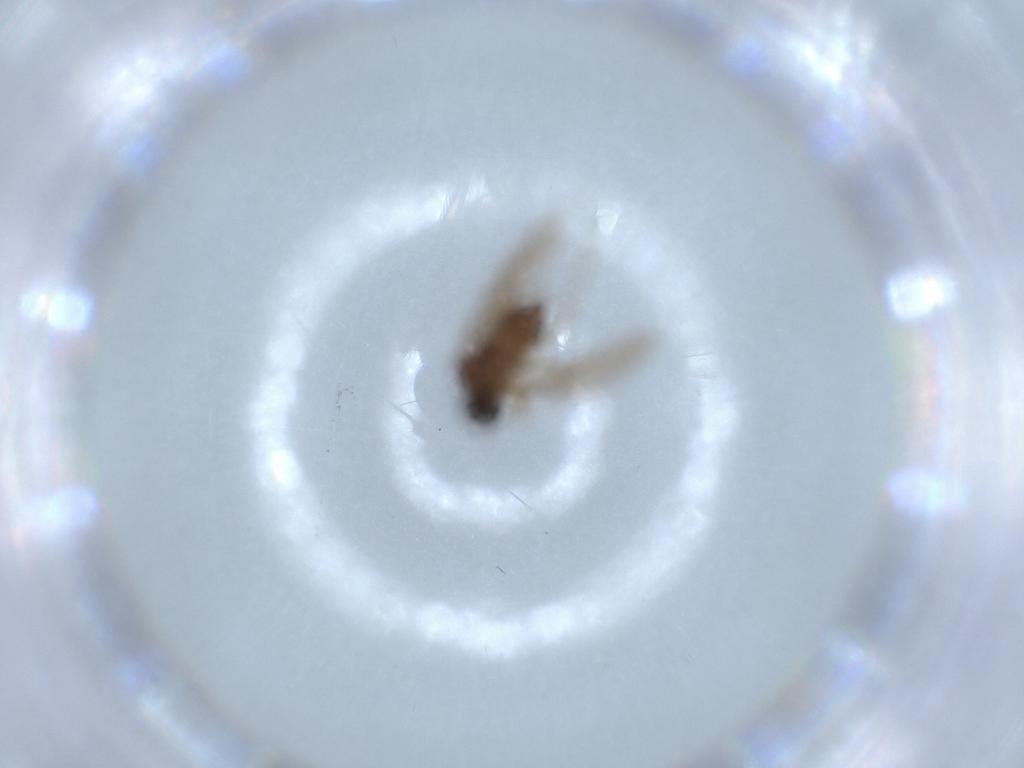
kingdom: Animalia
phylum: Arthropoda
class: Insecta
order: Diptera
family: Hybotidae
